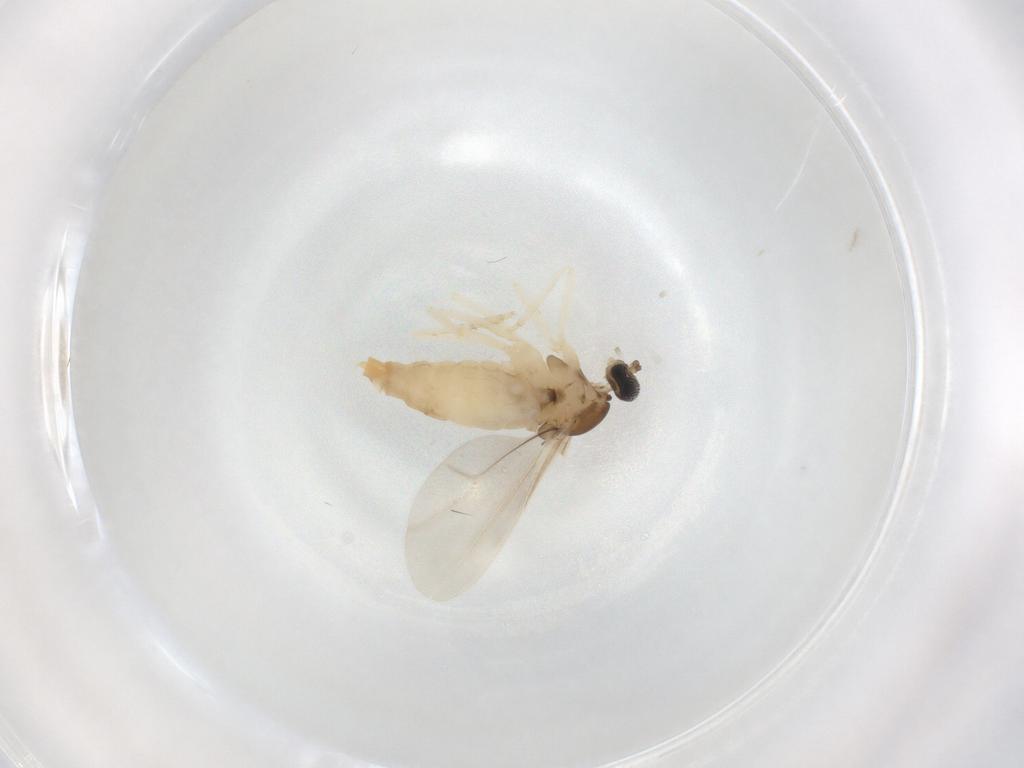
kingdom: Animalia
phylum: Arthropoda
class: Insecta
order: Diptera
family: Cecidomyiidae
